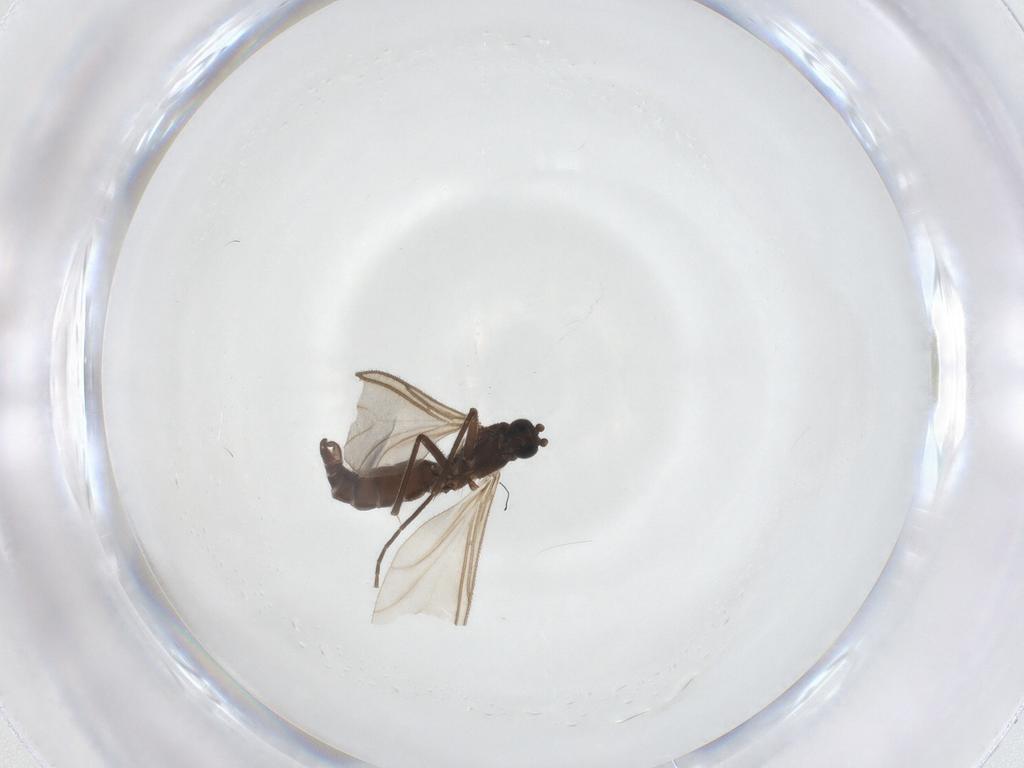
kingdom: Animalia
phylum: Arthropoda
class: Insecta
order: Diptera
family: Sciaridae
